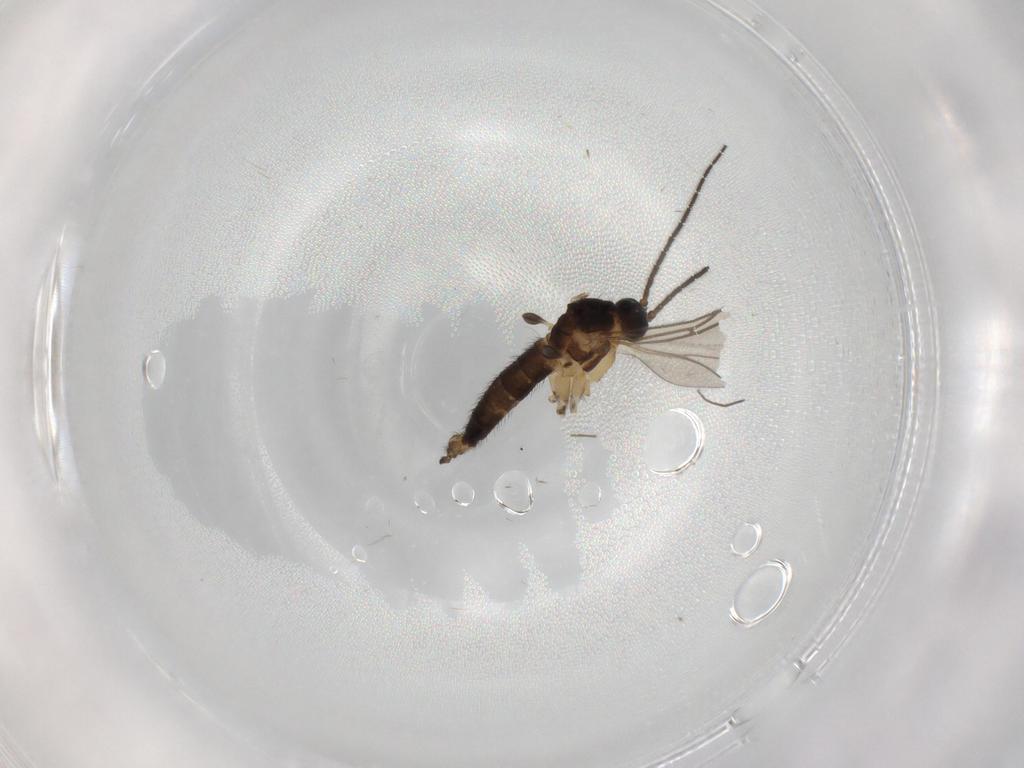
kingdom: Animalia
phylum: Arthropoda
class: Insecta
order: Diptera
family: Sciaridae
